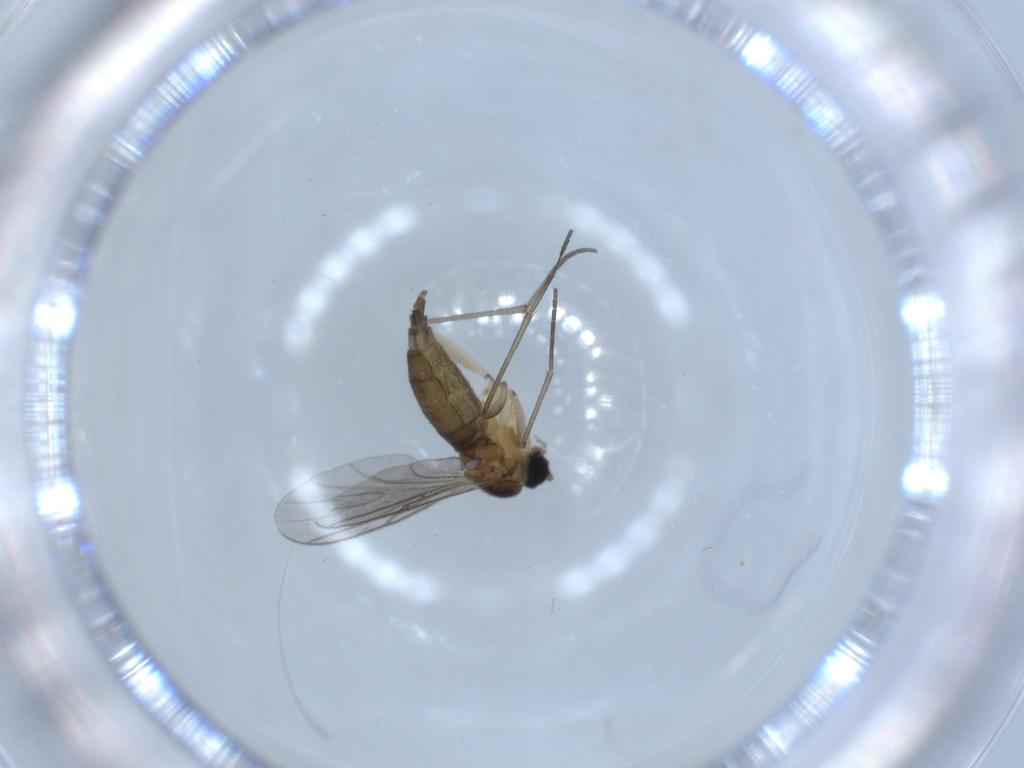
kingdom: Animalia
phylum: Arthropoda
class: Insecta
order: Diptera
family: Sciaridae
